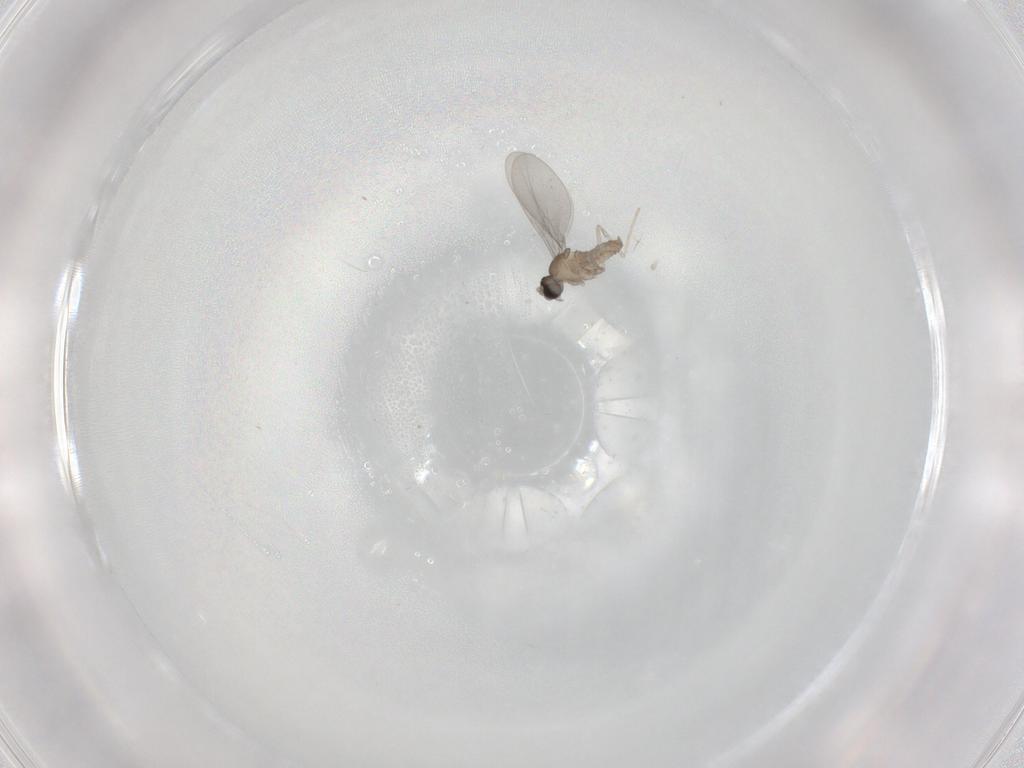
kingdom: Animalia
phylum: Arthropoda
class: Insecta
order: Diptera
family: Cecidomyiidae
